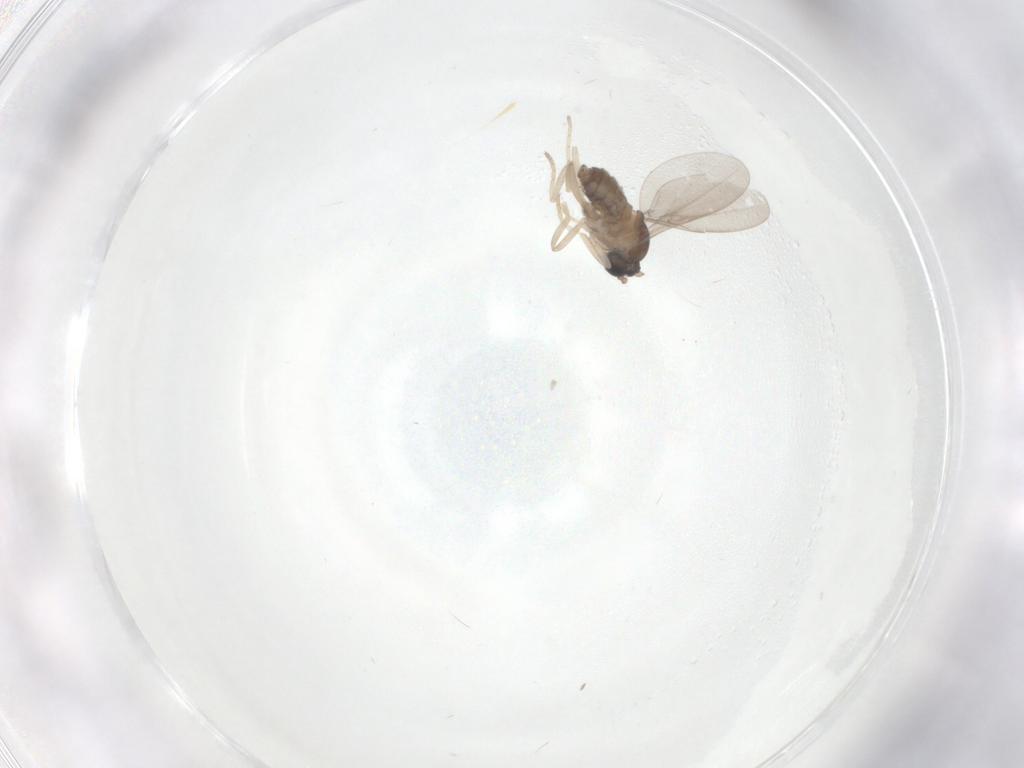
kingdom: Animalia
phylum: Arthropoda
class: Insecta
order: Diptera
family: Cecidomyiidae
